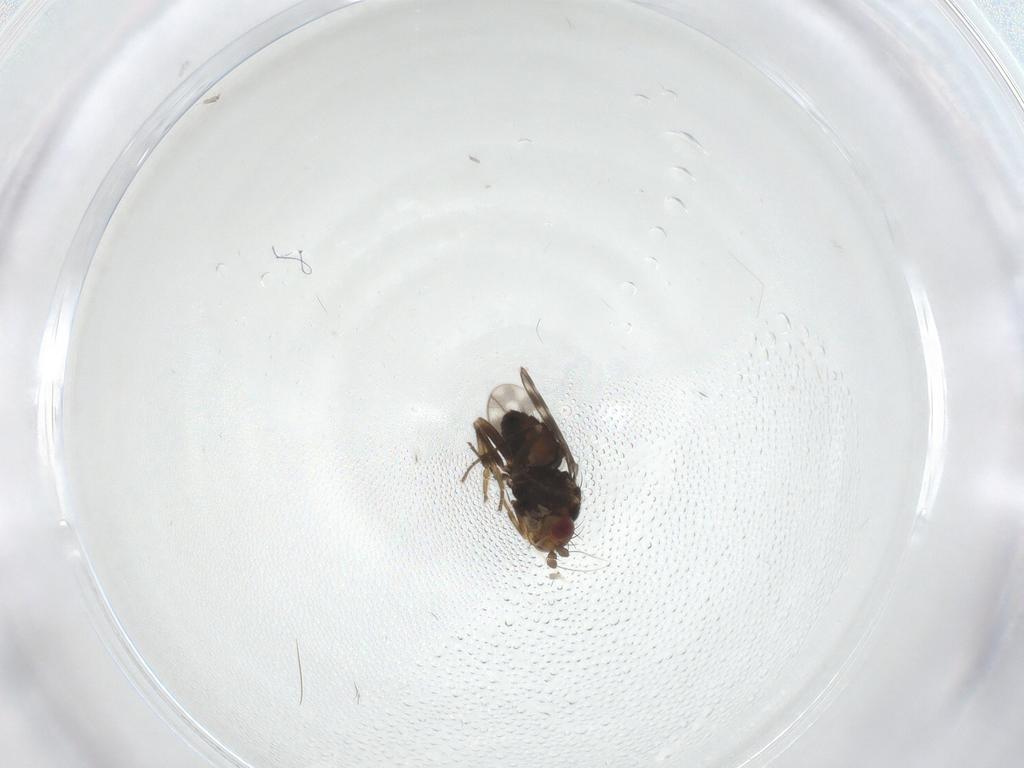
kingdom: Animalia
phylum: Arthropoda
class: Insecta
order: Diptera
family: Sphaeroceridae
